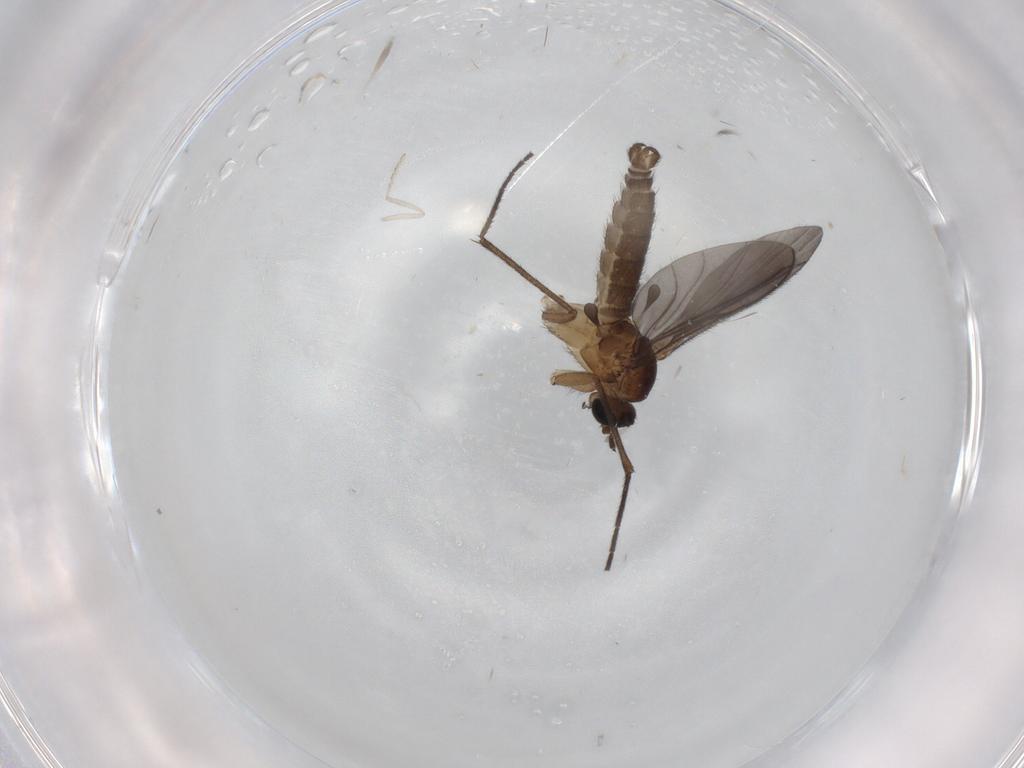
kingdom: Animalia
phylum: Arthropoda
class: Insecta
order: Diptera
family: Cecidomyiidae
